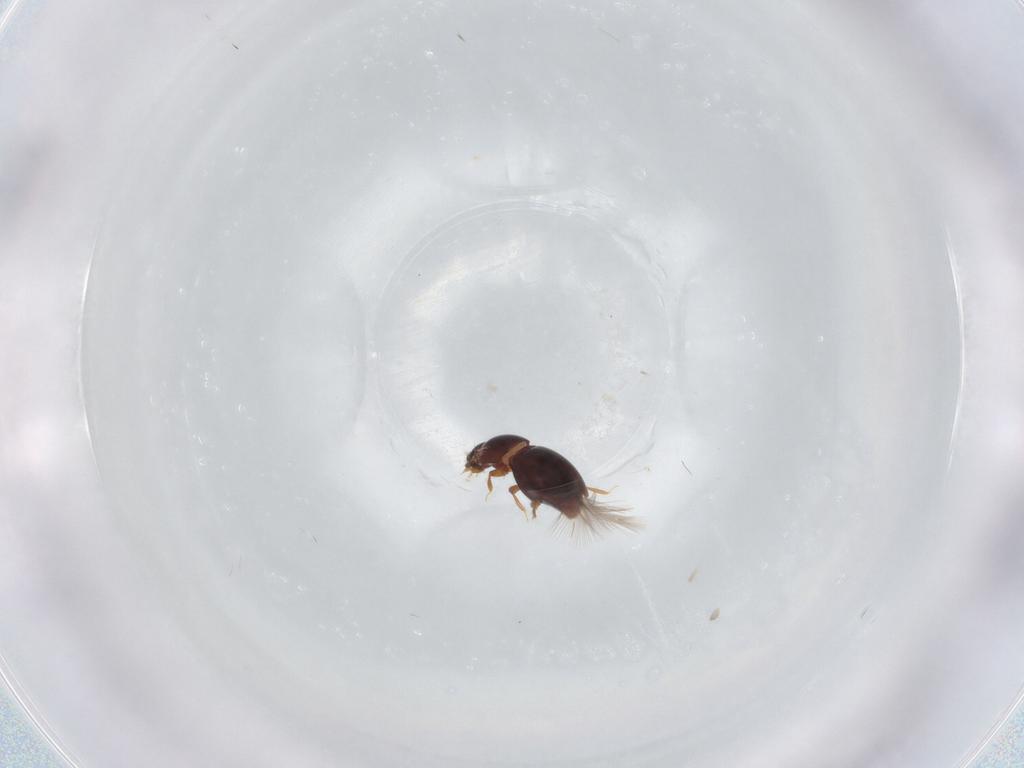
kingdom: Animalia
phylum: Arthropoda
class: Insecta
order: Coleoptera
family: Ptiliidae
